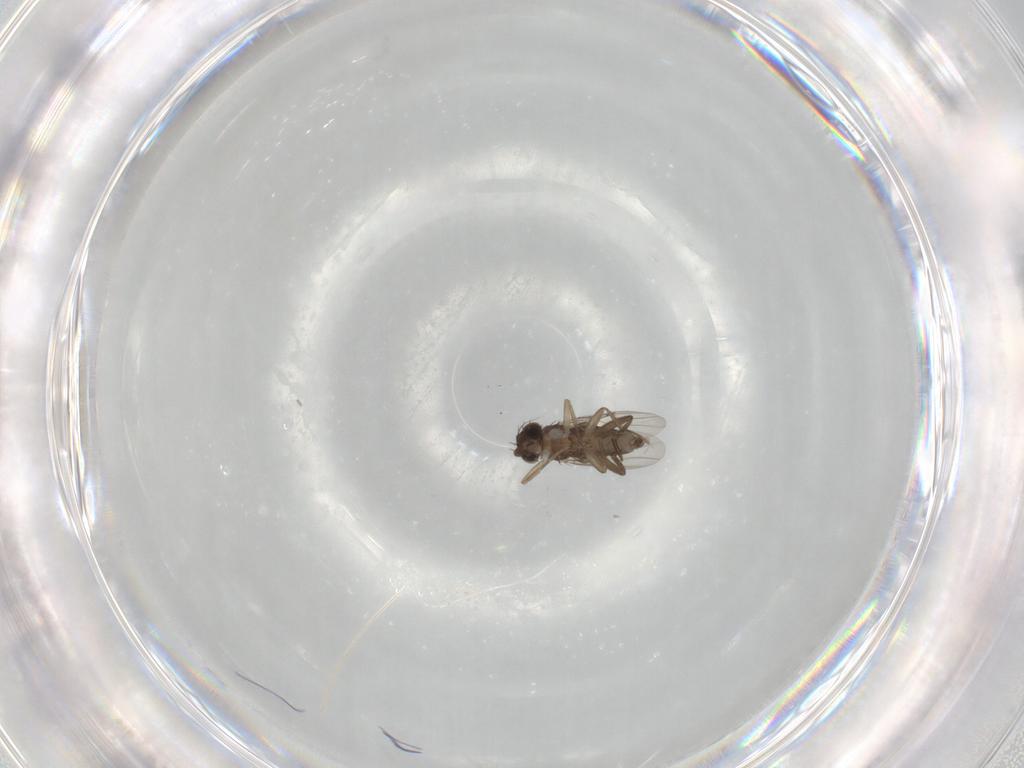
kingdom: Animalia
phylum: Arthropoda
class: Insecta
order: Diptera
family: Phoridae
